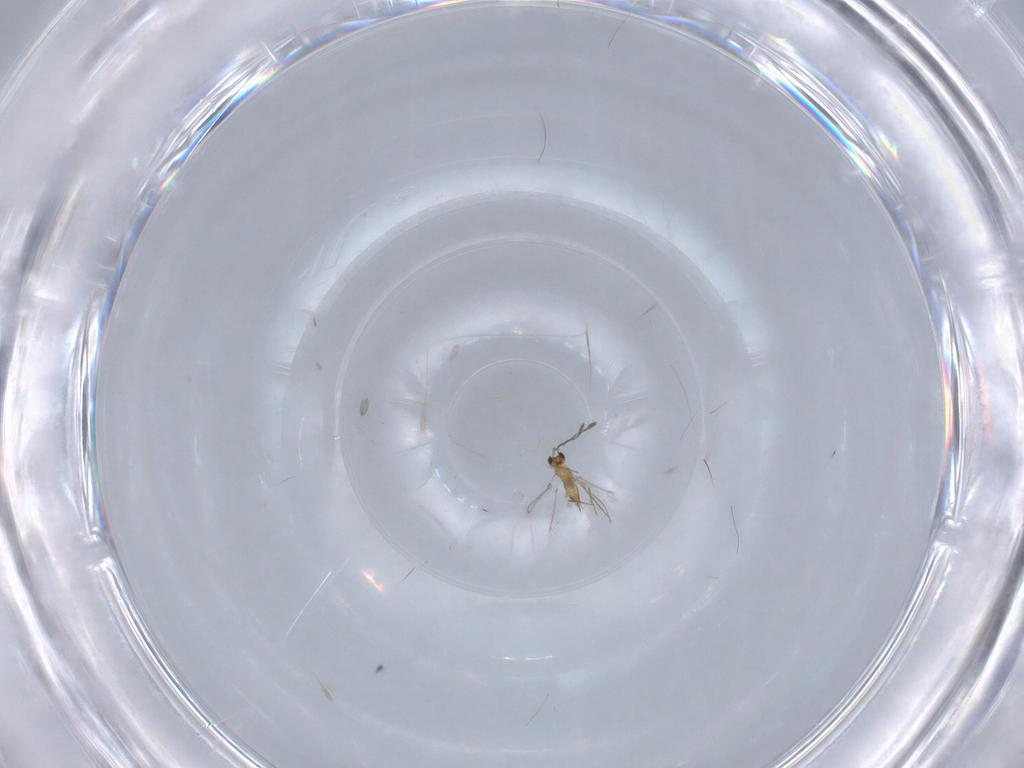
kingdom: Animalia
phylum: Arthropoda
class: Insecta
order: Hymenoptera
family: Mymaridae
